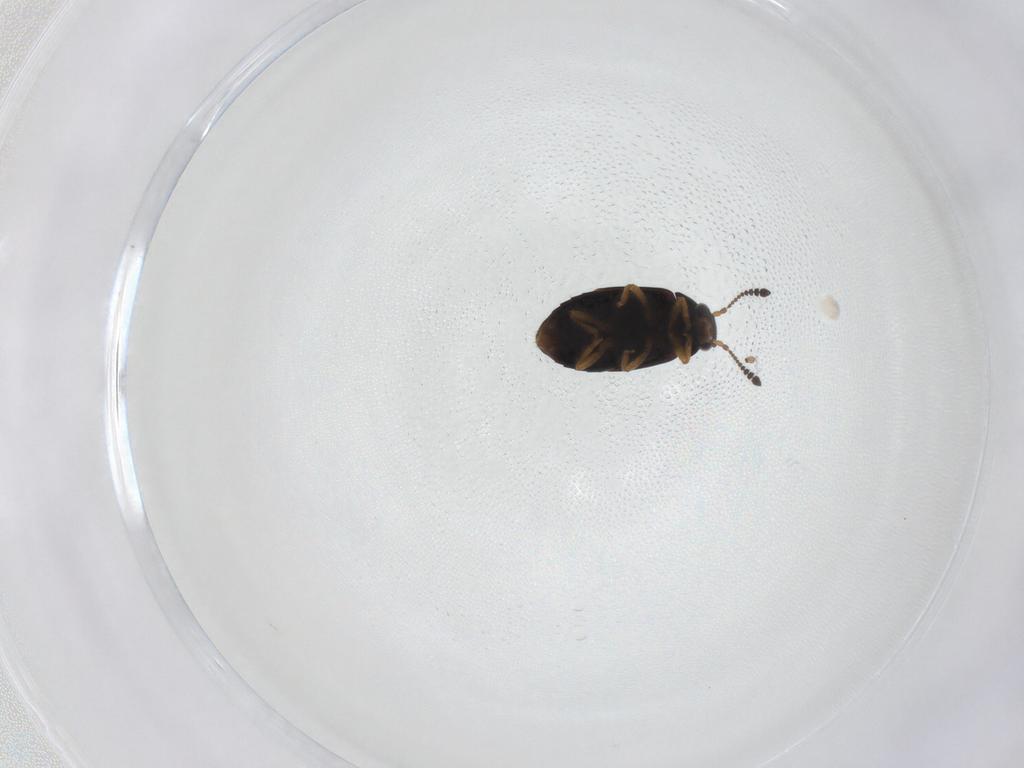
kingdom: Animalia
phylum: Arthropoda
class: Insecta
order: Coleoptera
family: Staphylinidae
